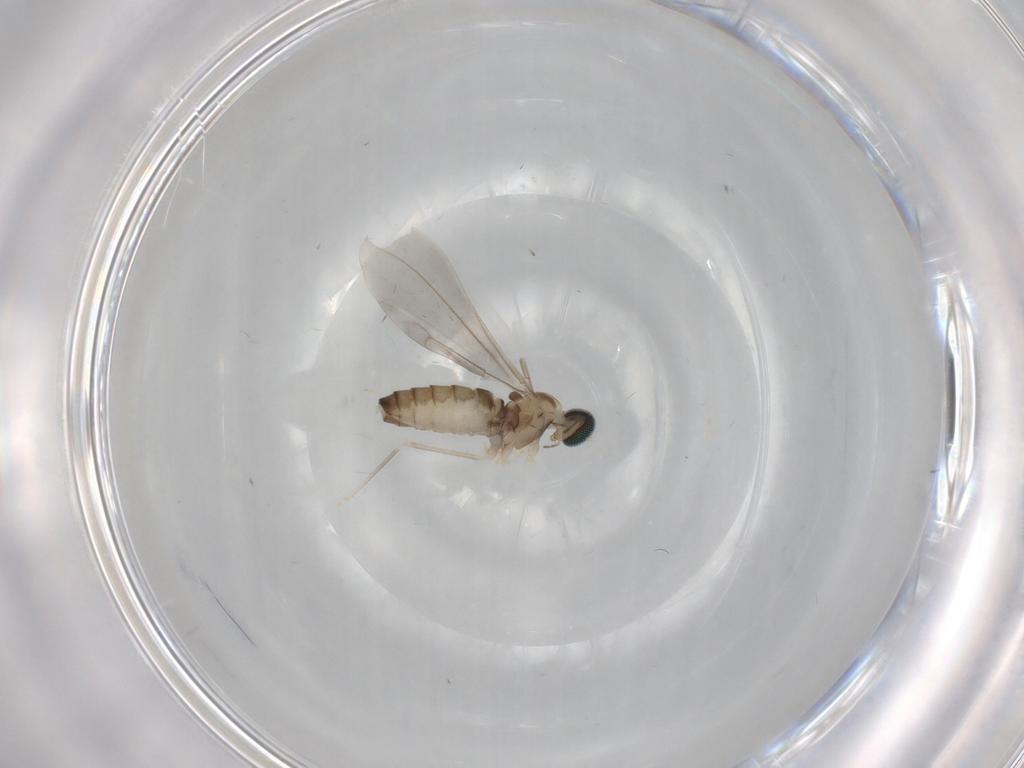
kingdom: Animalia
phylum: Arthropoda
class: Insecta
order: Diptera
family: Cecidomyiidae
